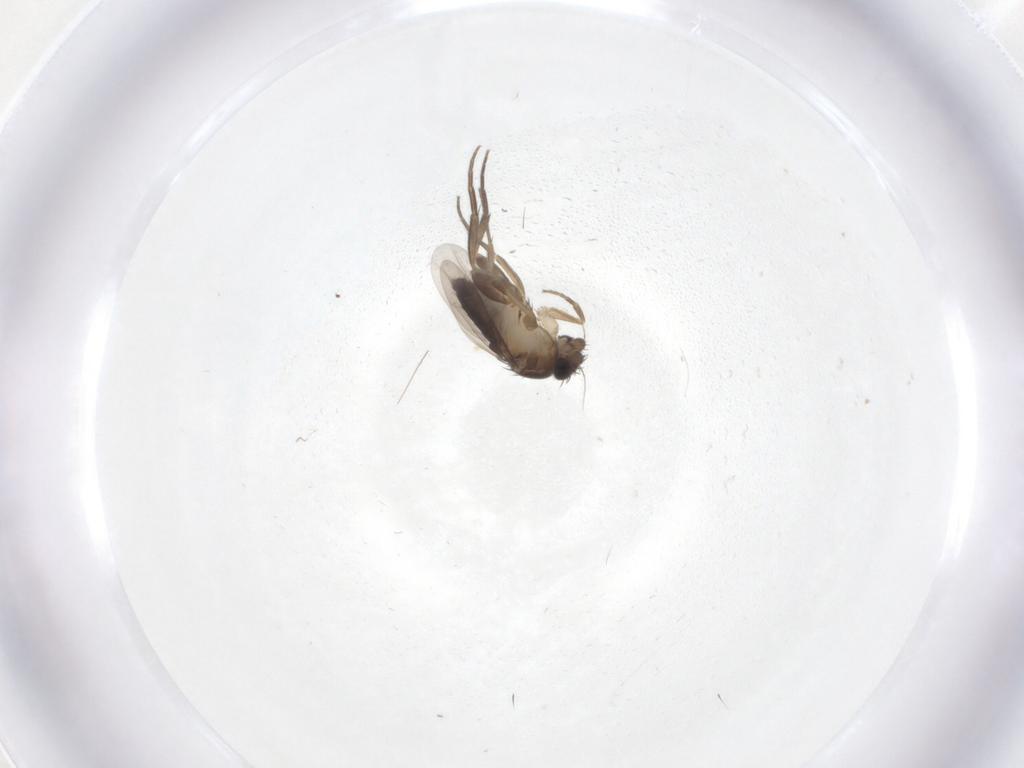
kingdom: Animalia
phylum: Arthropoda
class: Insecta
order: Diptera
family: Phoridae
